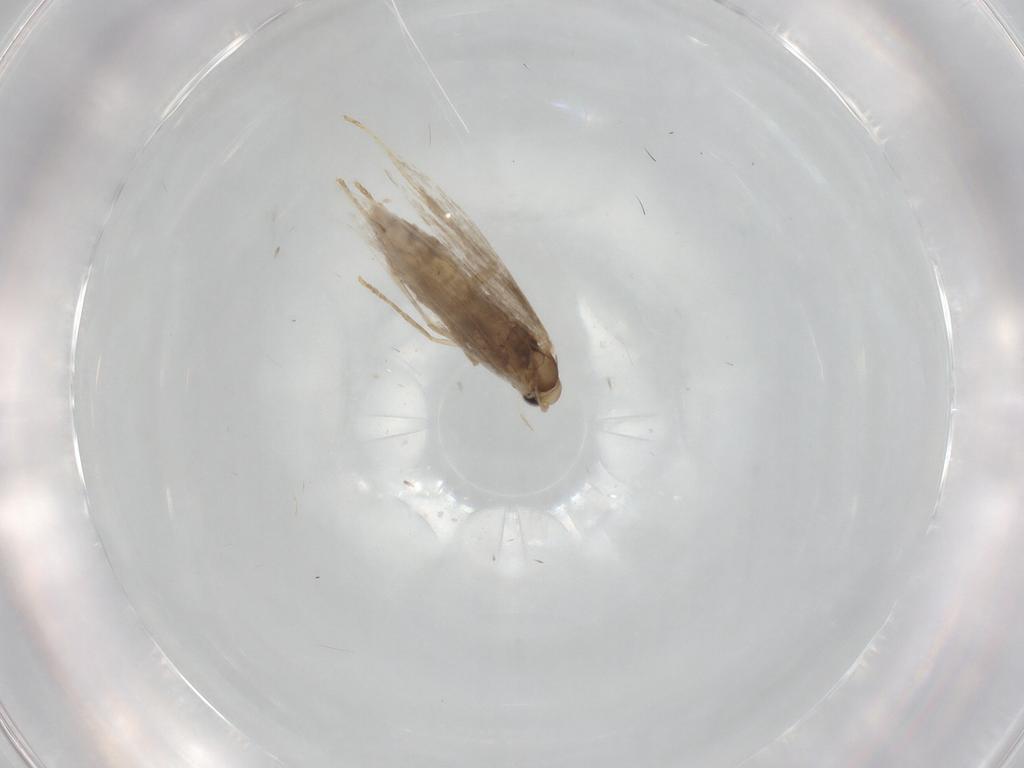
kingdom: Animalia
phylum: Arthropoda
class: Insecta
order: Lepidoptera
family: Gracillariidae
